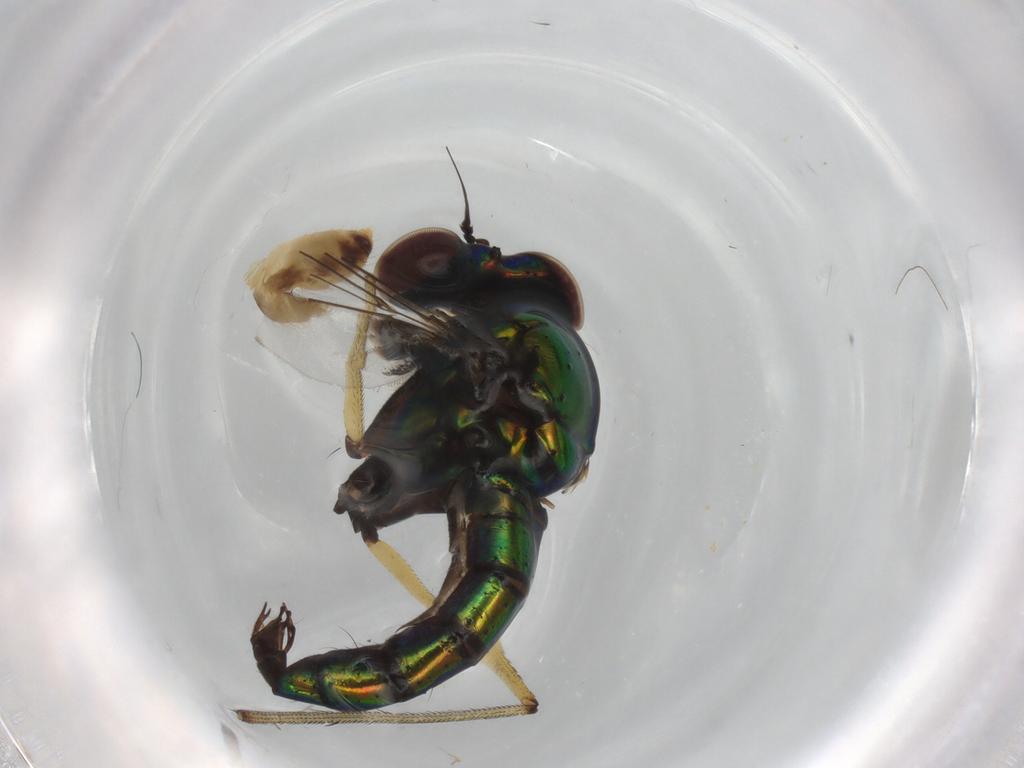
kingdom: Animalia
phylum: Arthropoda
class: Insecta
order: Diptera
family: Dolichopodidae
